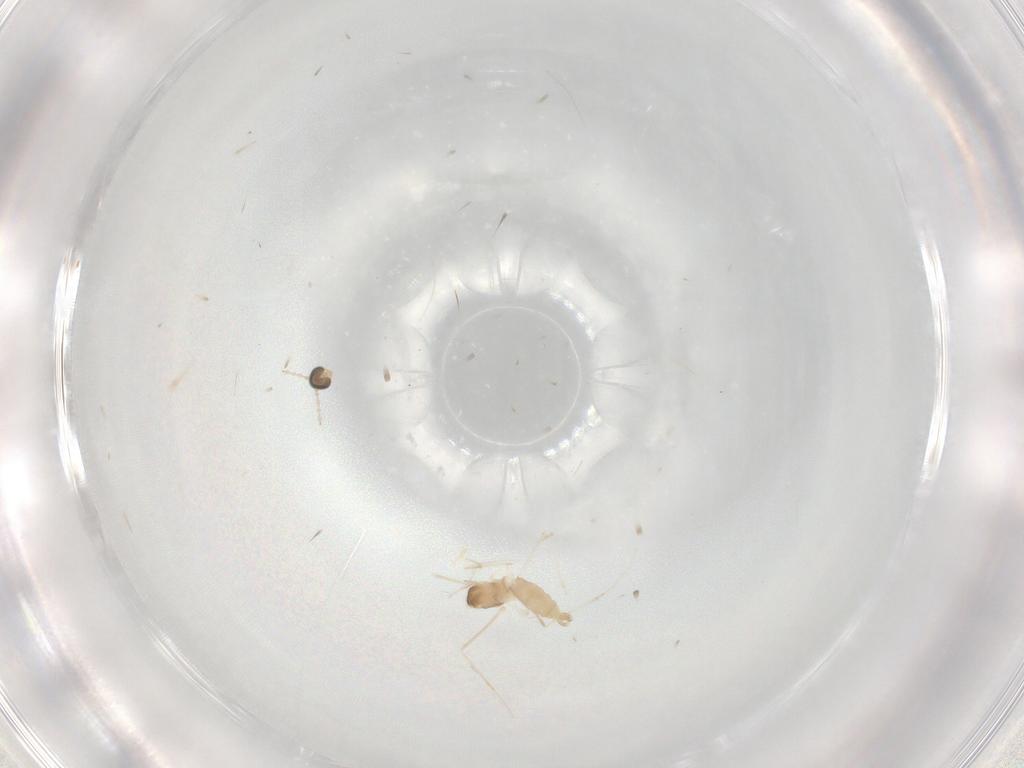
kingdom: Animalia
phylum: Arthropoda
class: Insecta
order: Diptera
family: Cecidomyiidae
